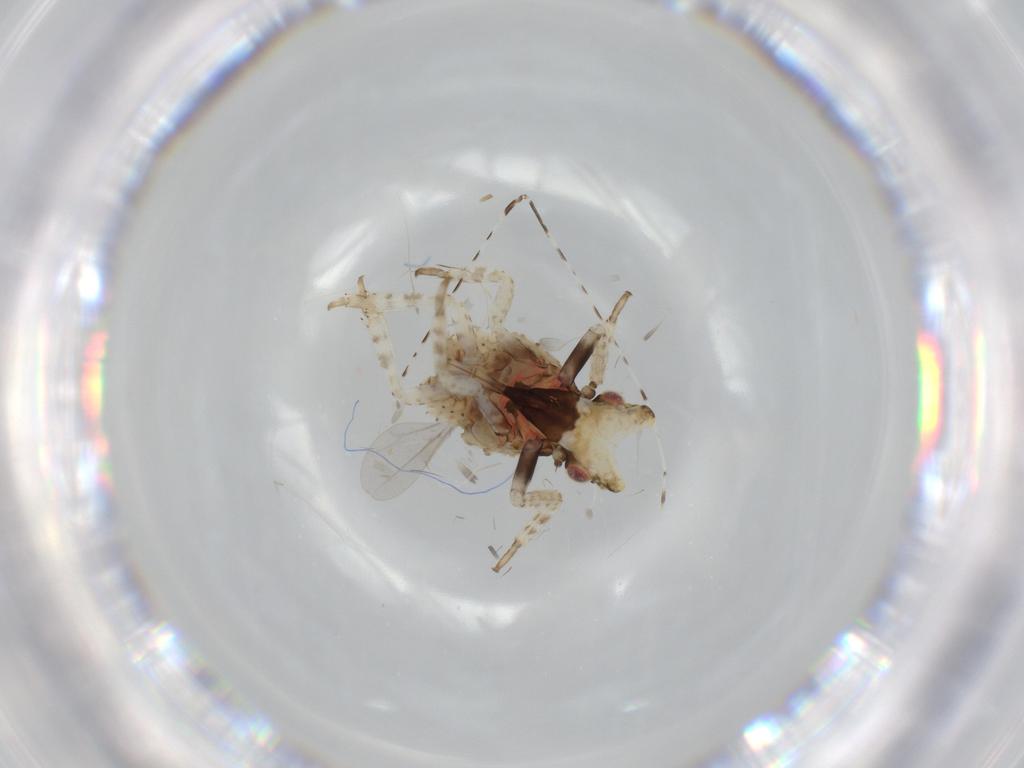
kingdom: Animalia
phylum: Arthropoda
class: Insecta
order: Hemiptera
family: Fulgoridae
